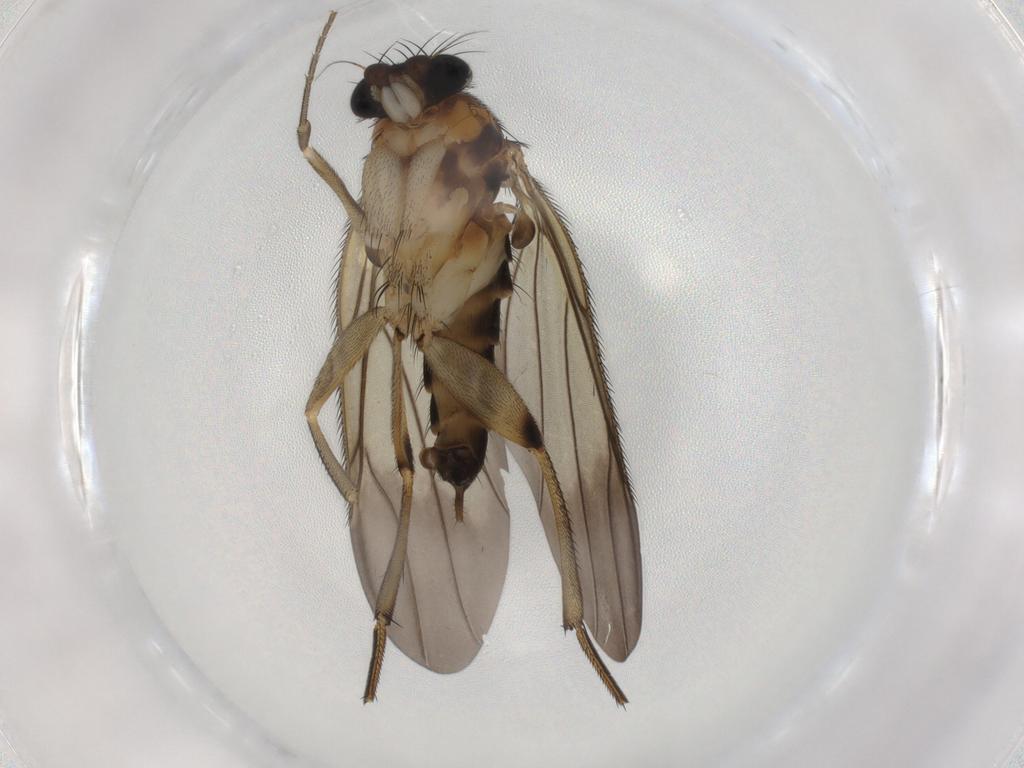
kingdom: Animalia
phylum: Arthropoda
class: Insecta
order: Diptera
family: Phoridae
